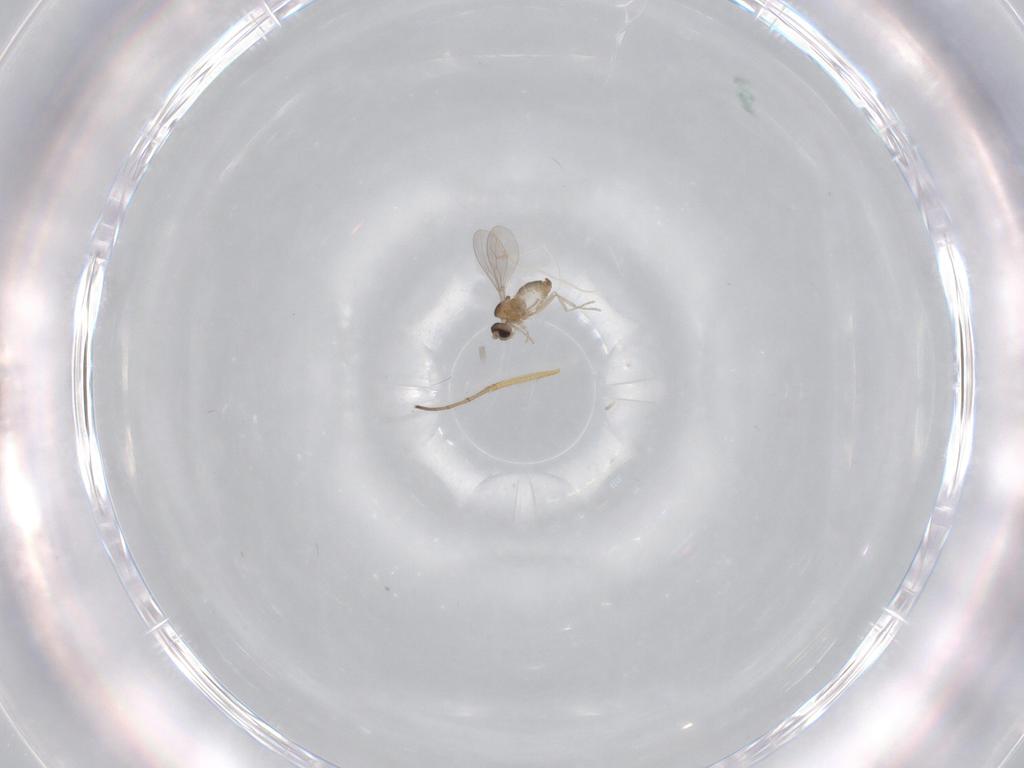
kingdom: Animalia
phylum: Arthropoda
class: Insecta
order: Diptera
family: Cecidomyiidae
